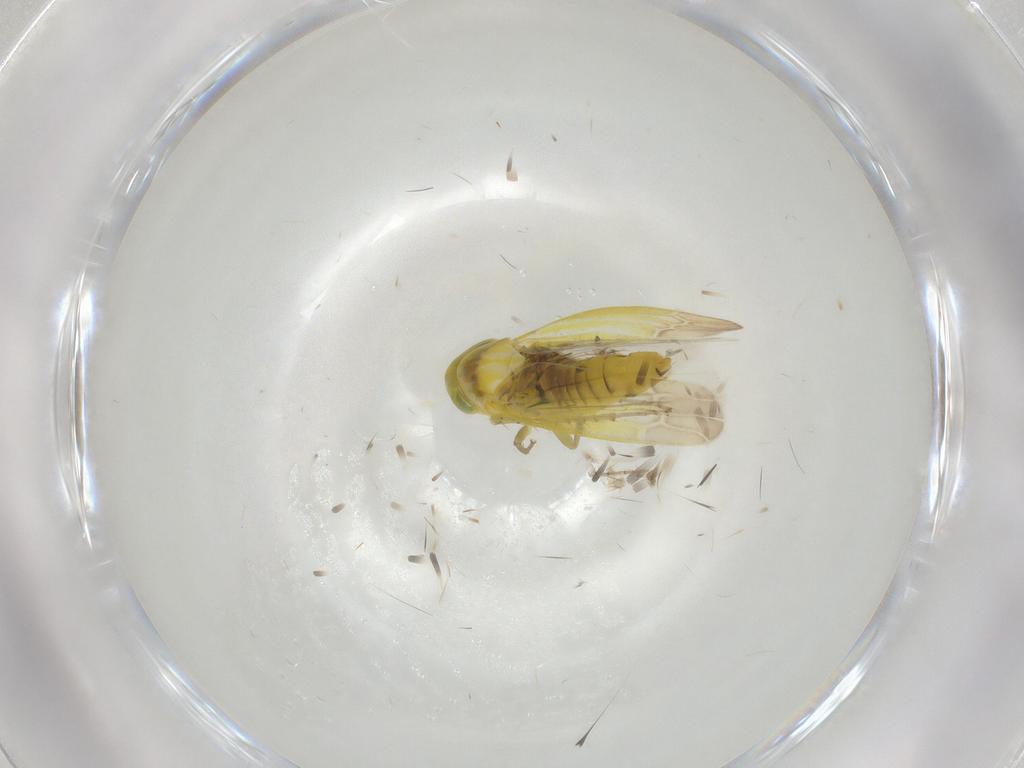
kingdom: Animalia
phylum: Arthropoda
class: Insecta
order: Hemiptera
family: Cicadellidae
